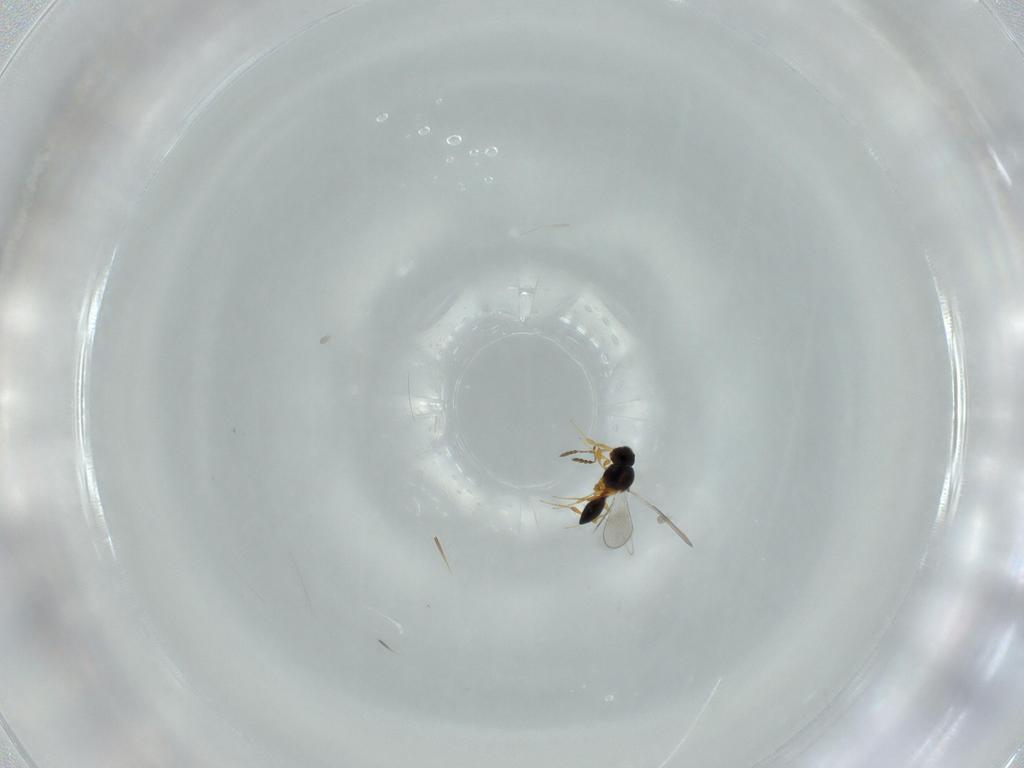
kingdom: Animalia
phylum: Arthropoda
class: Insecta
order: Hymenoptera
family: Platygastridae
